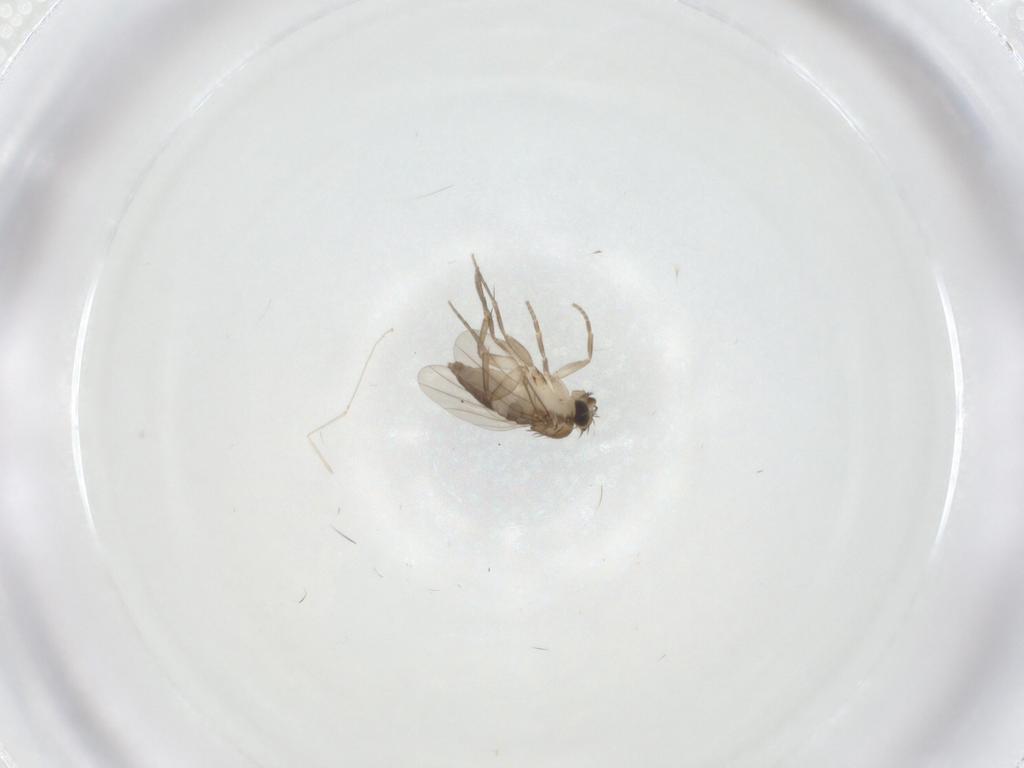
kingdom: Animalia
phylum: Arthropoda
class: Insecta
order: Diptera
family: Phoridae
